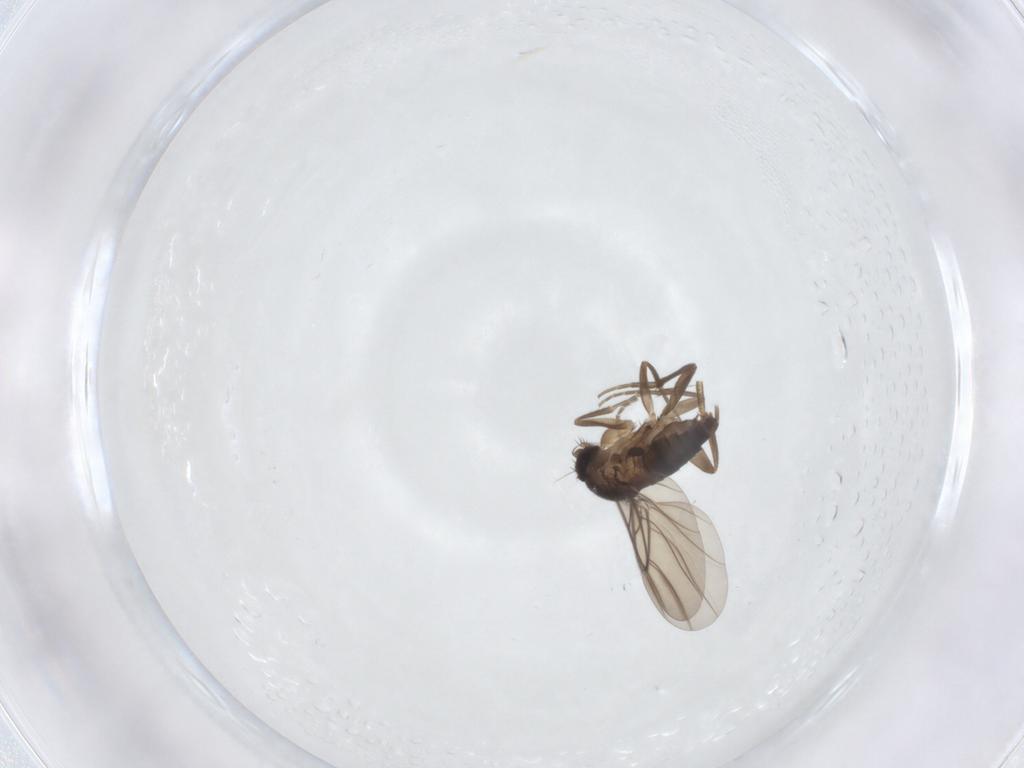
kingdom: Animalia
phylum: Arthropoda
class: Insecta
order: Diptera
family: Phoridae
